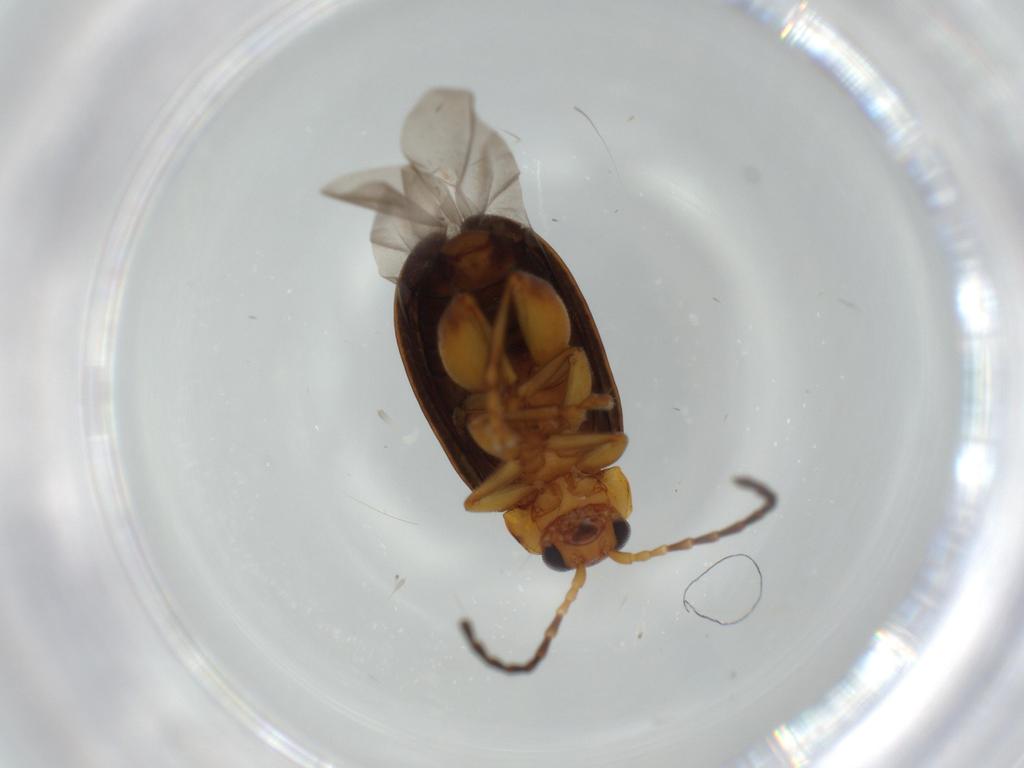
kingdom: Animalia
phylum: Arthropoda
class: Insecta
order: Coleoptera
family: Chrysomelidae
